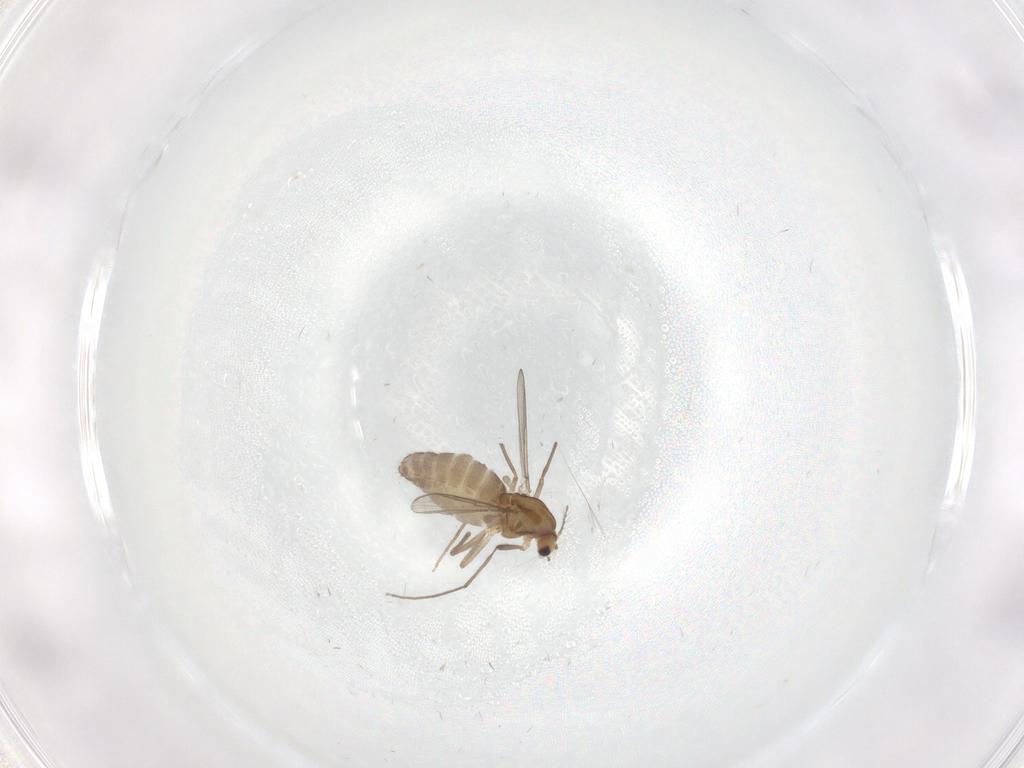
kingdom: Animalia
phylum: Arthropoda
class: Insecta
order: Diptera
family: Chironomidae
